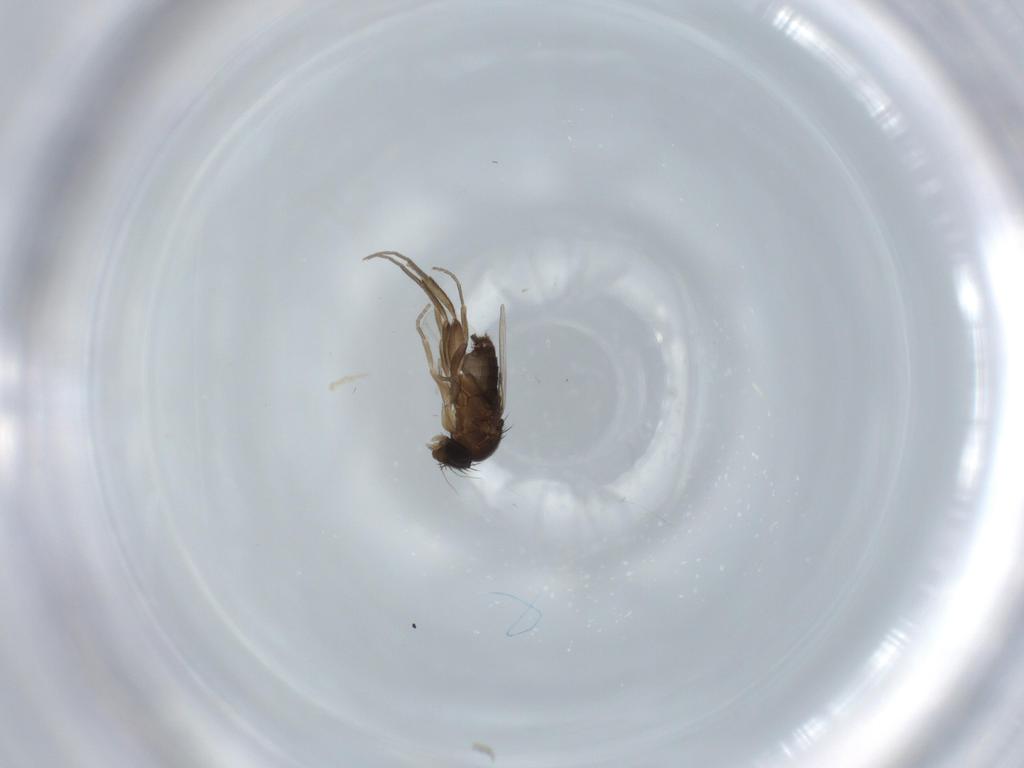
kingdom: Animalia
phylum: Arthropoda
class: Insecta
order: Diptera
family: Phoridae
